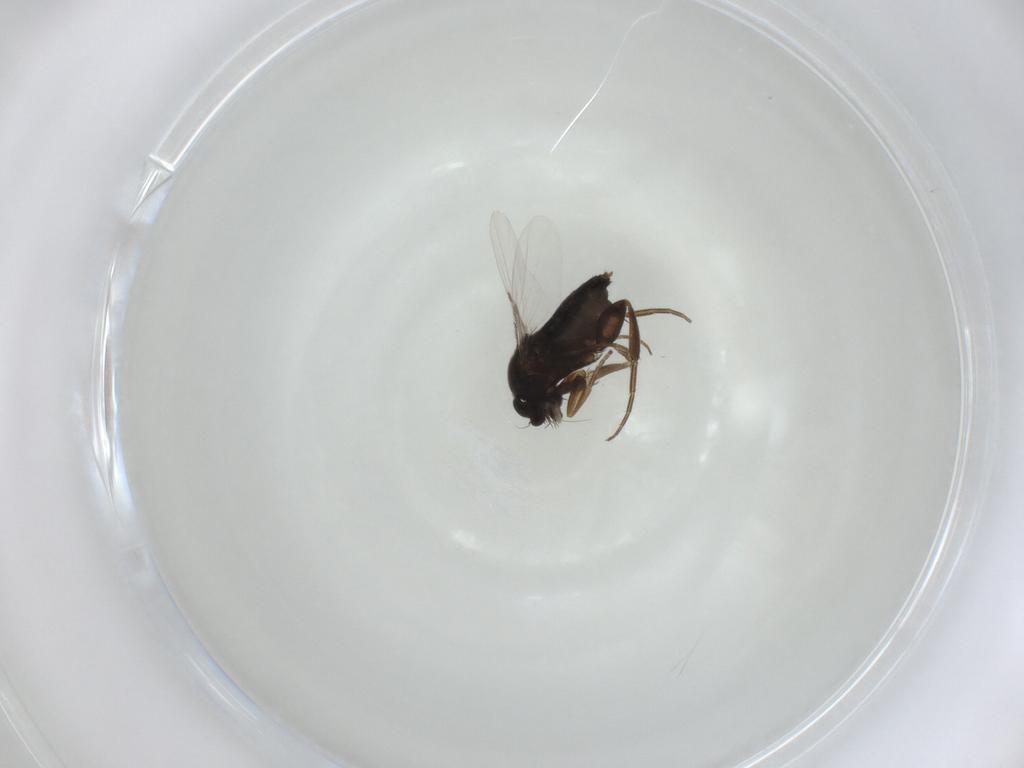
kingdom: Animalia
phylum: Arthropoda
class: Insecta
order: Diptera
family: Phoridae
